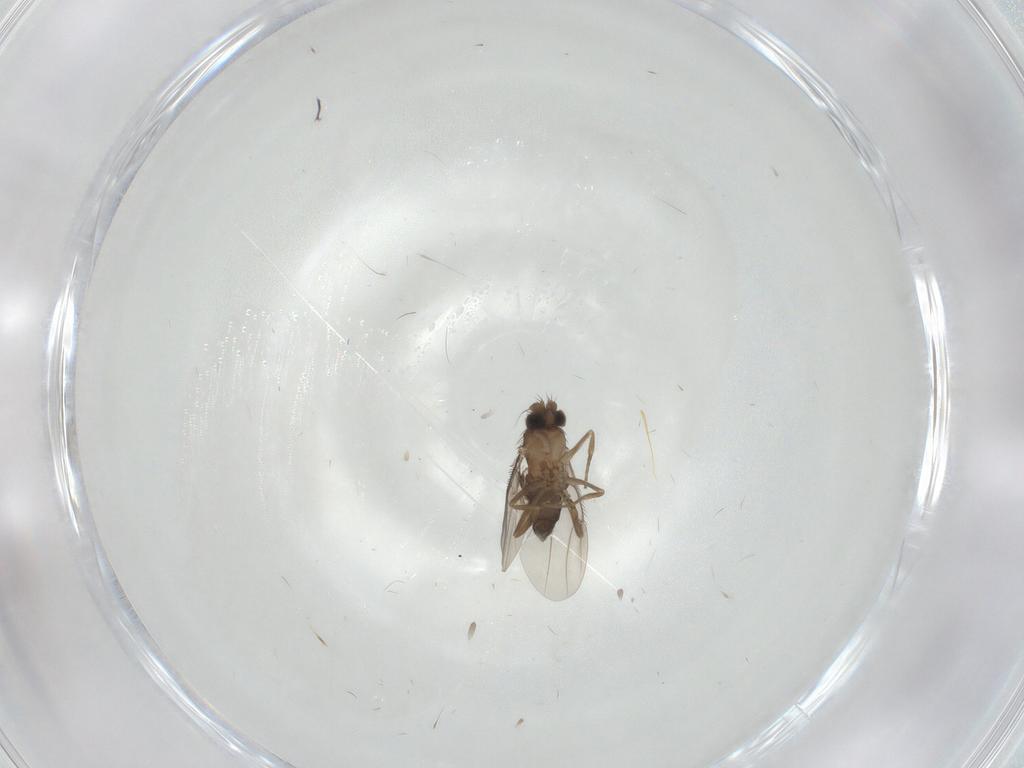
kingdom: Animalia
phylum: Arthropoda
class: Insecta
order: Diptera
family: Phoridae
